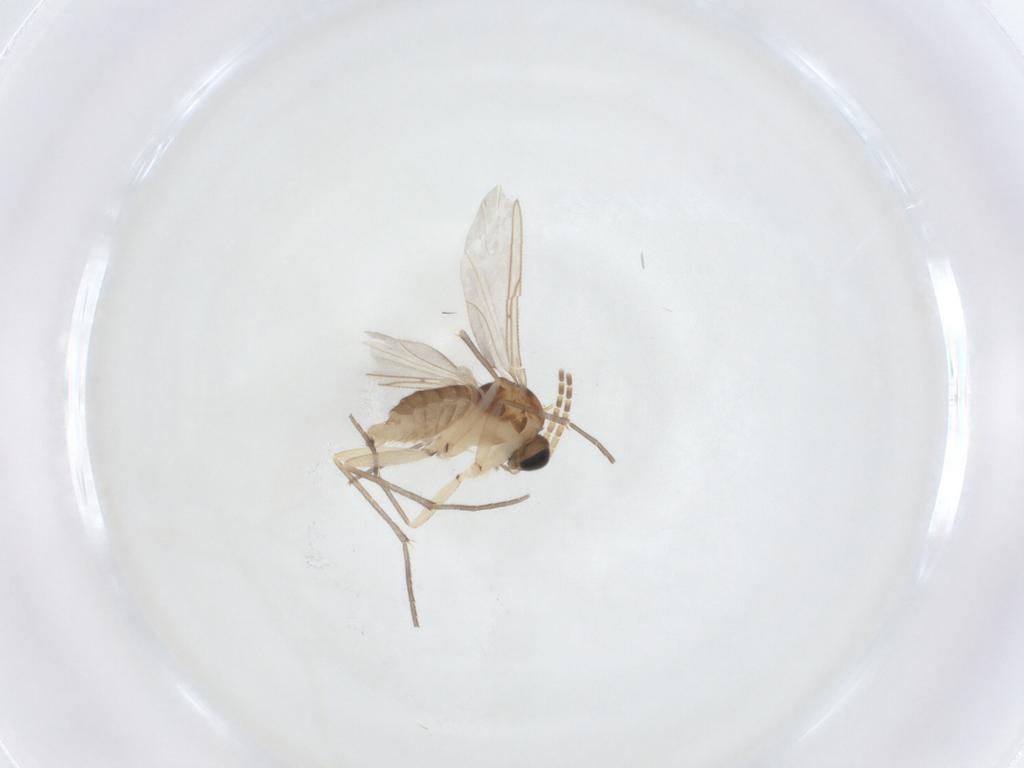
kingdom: Animalia
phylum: Arthropoda
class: Insecta
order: Diptera
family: Sciaridae
